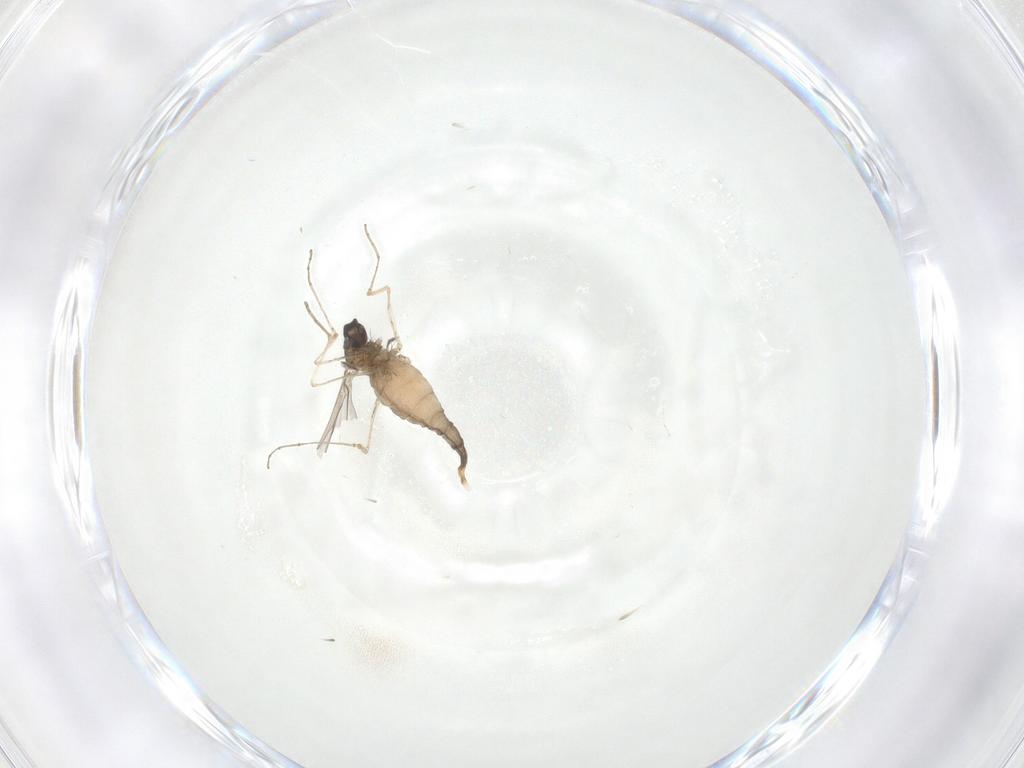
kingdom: Animalia
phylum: Arthropoda
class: Insecta
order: Diptera
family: Cecidomyiidae
